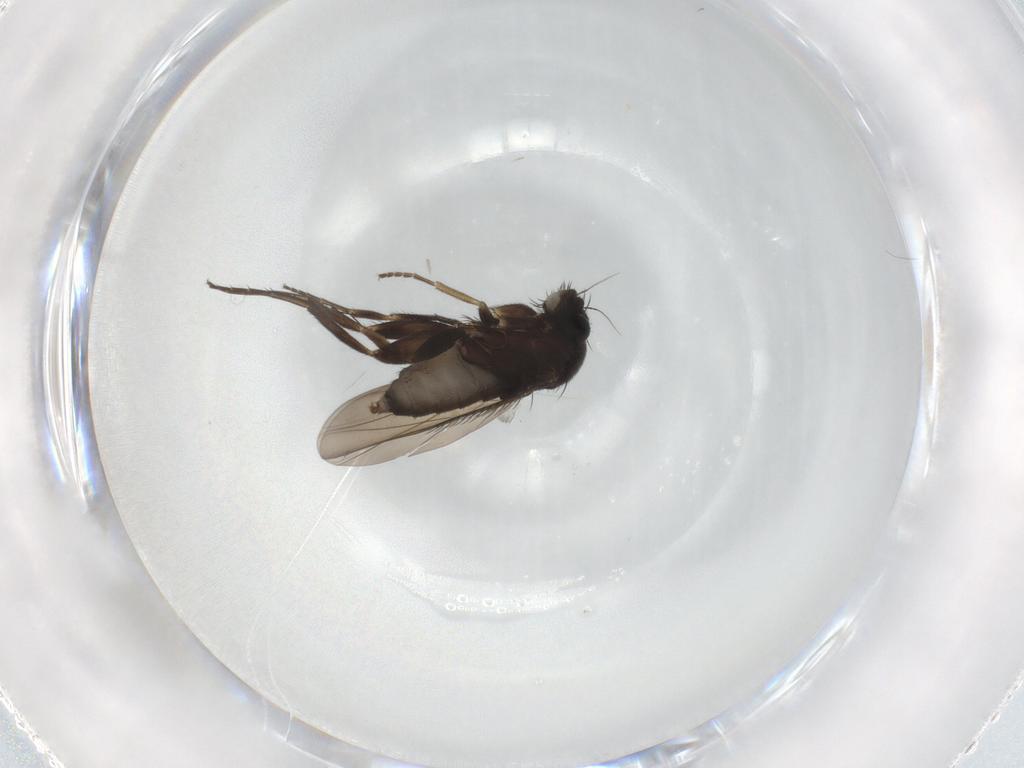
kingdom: Animalia
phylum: Arthropoda
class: Insecta
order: Diptera
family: Phoridae
